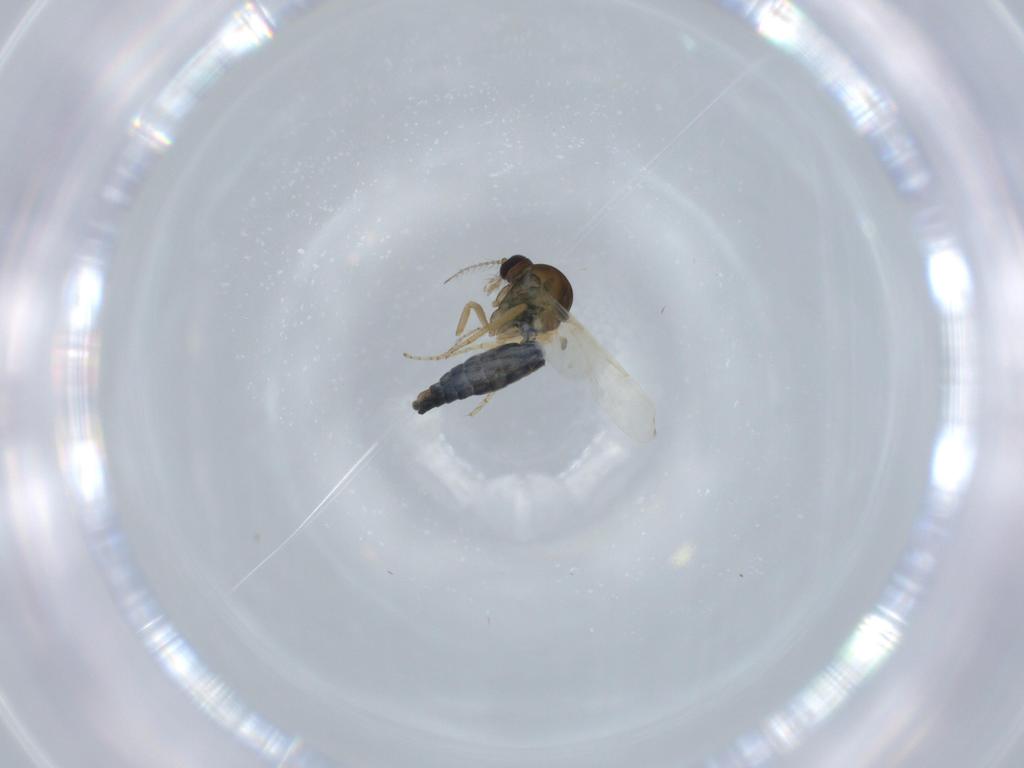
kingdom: Animalia
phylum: Arthropoda
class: Insecta
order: Diptera
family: Ceratopogonidae
